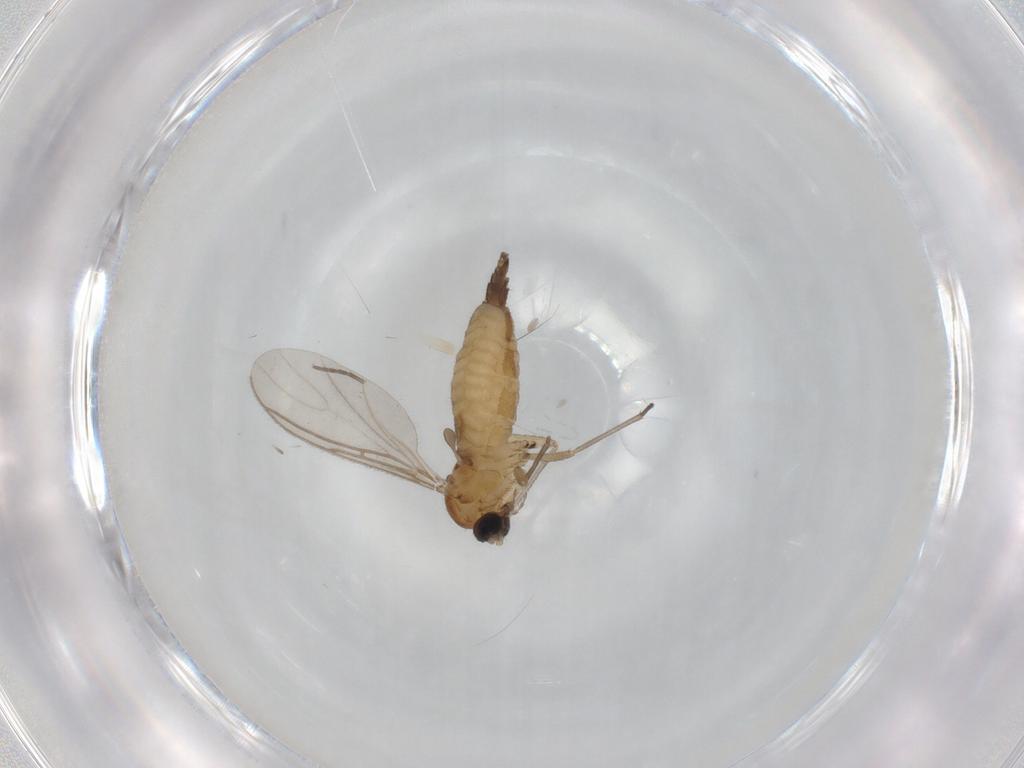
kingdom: Animalia
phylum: Arthropoda
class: Insecta
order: Diptera
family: Sciaridae
